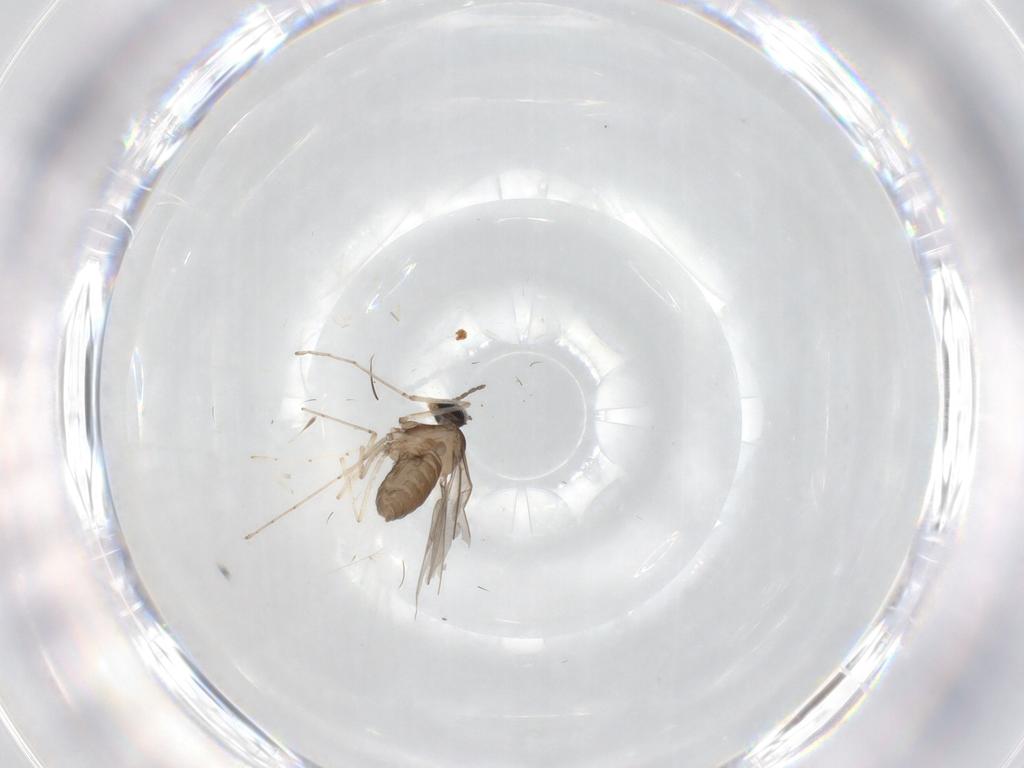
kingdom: Animalia
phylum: Arthropoda
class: Insecta
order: Diptera
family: Cecidomyiidae
